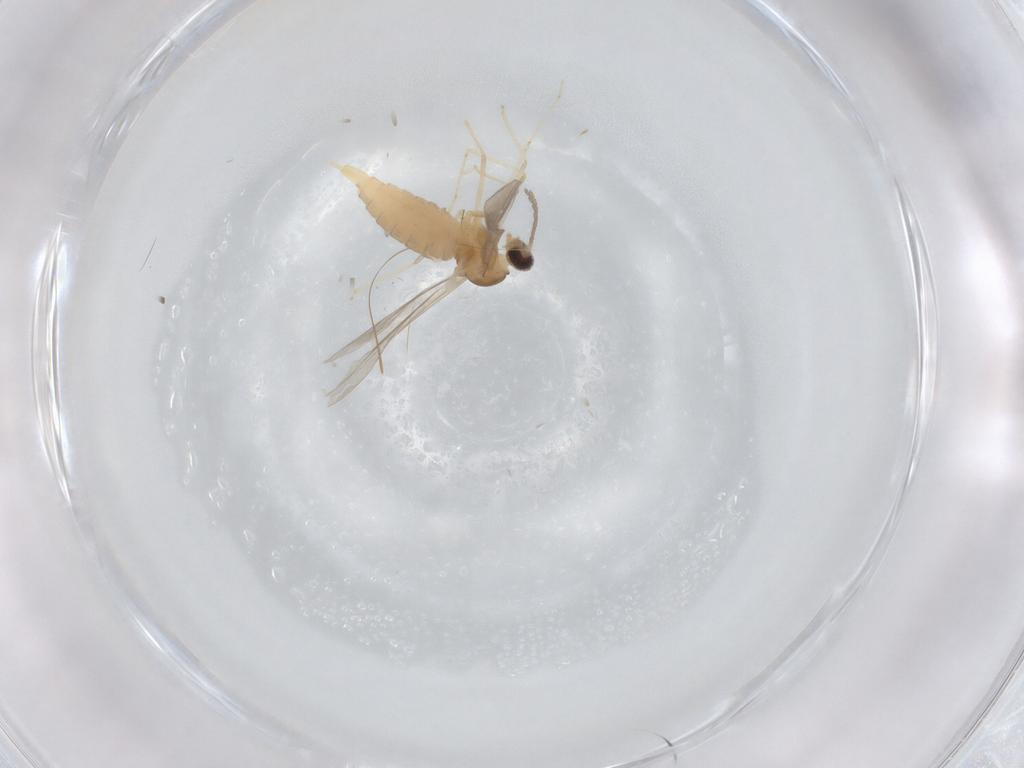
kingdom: Animalia
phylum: Arthropoda
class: Insecta
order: Diptera
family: Cecidomyiidae
